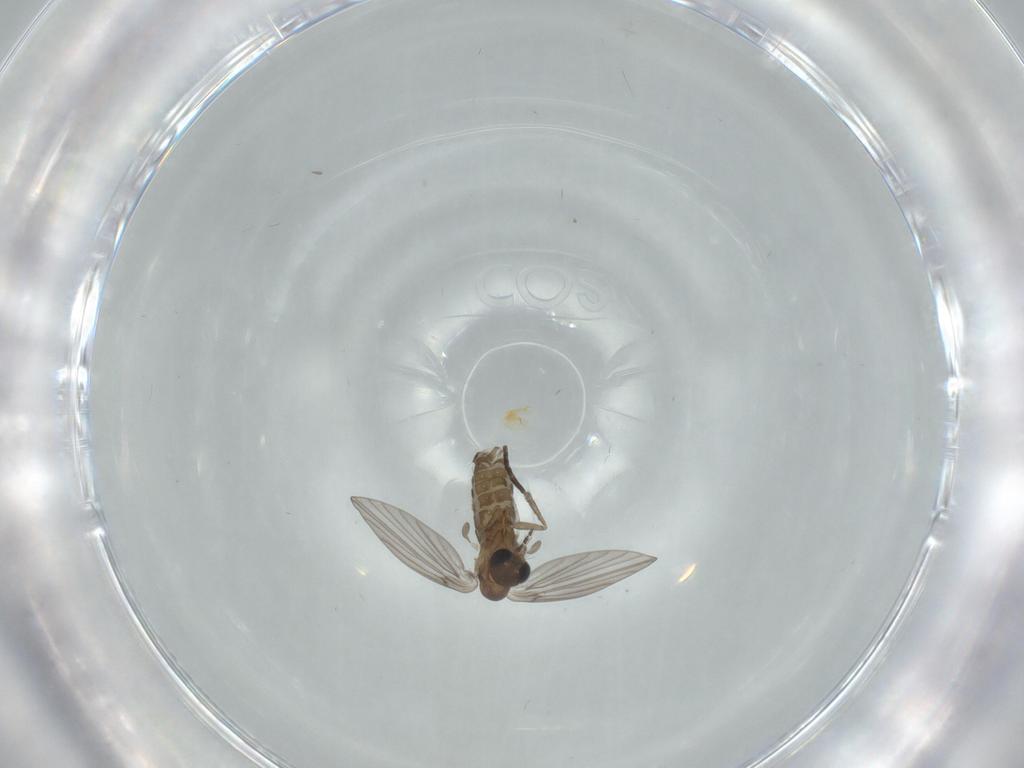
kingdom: Animalia
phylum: Arthropoda
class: Insecta
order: Diptera
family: Psychodidae
